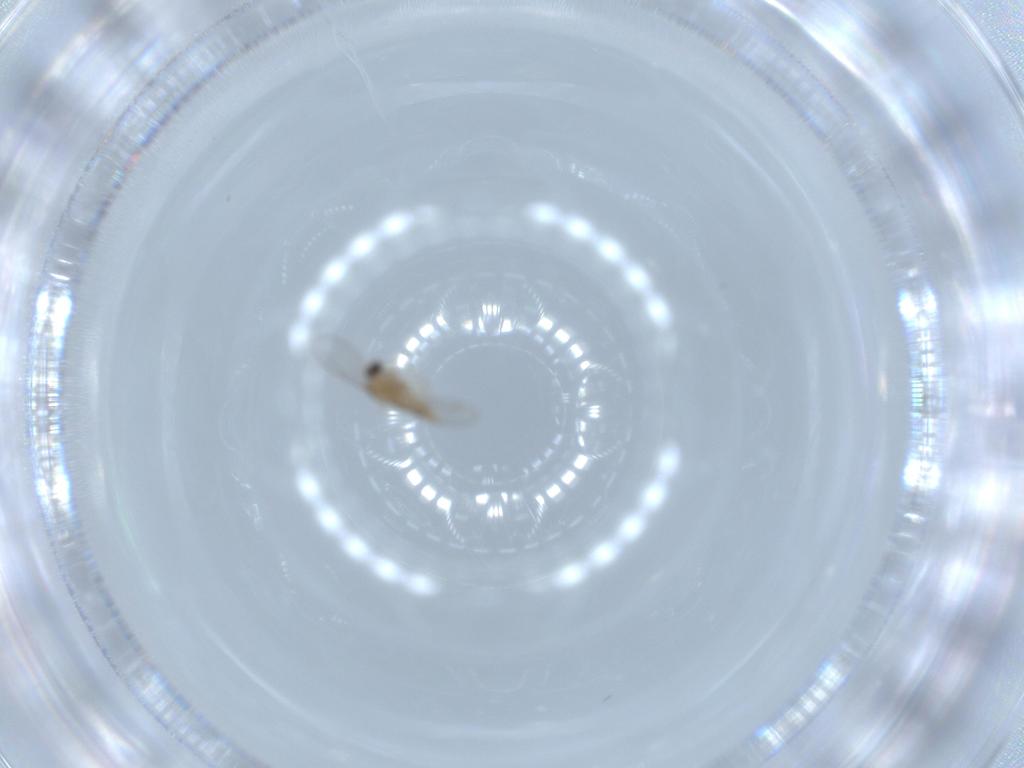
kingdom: Animalia
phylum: Arthropoda
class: Insecta
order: Diptera
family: Cecidomyiidae
